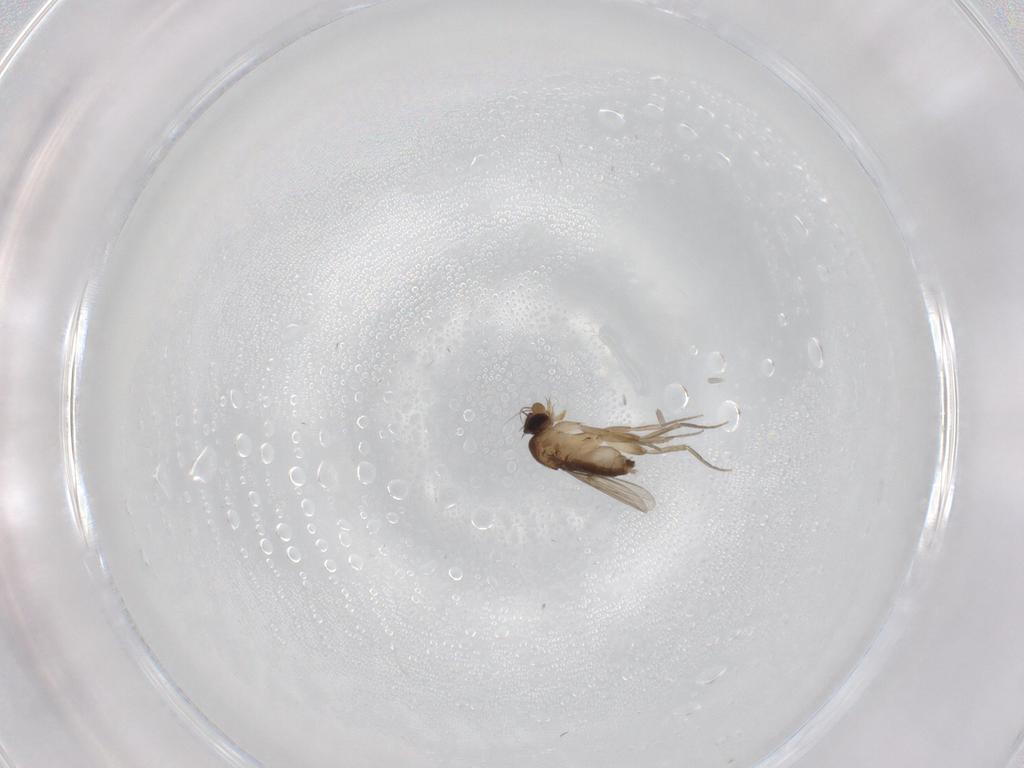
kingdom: Animalia
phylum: Arthropoda
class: Insecta
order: Diptera
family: Phoridae
